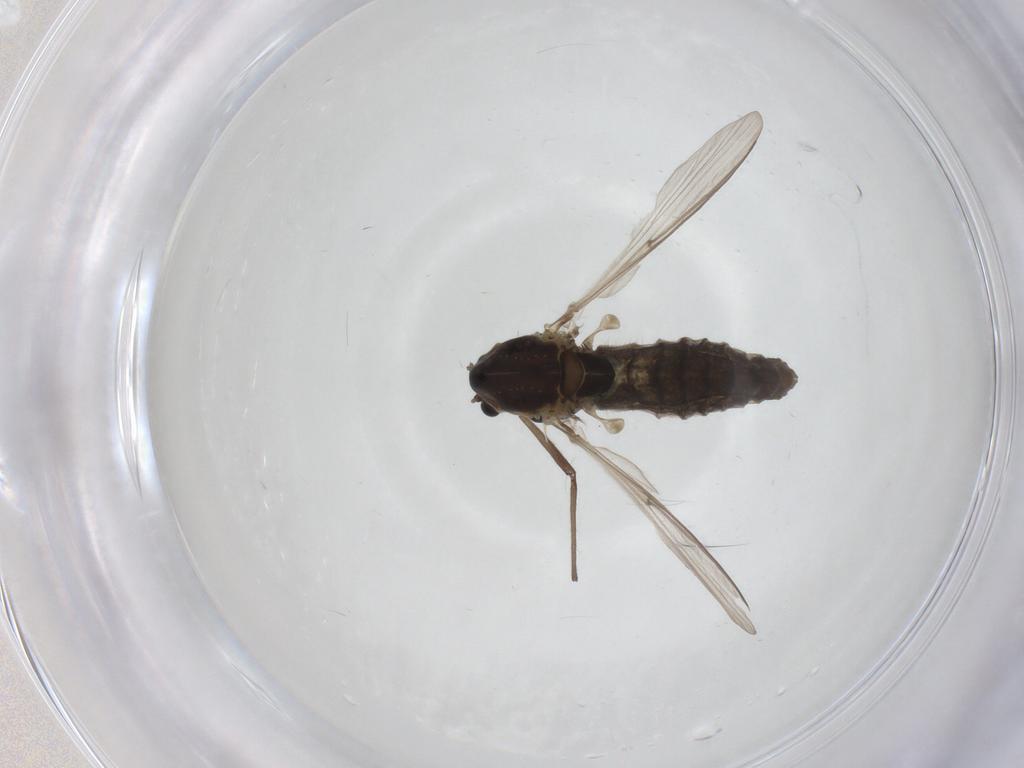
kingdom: Animalia
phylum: Arthropoda
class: Insecta
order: Diptera
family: Chironomidae
